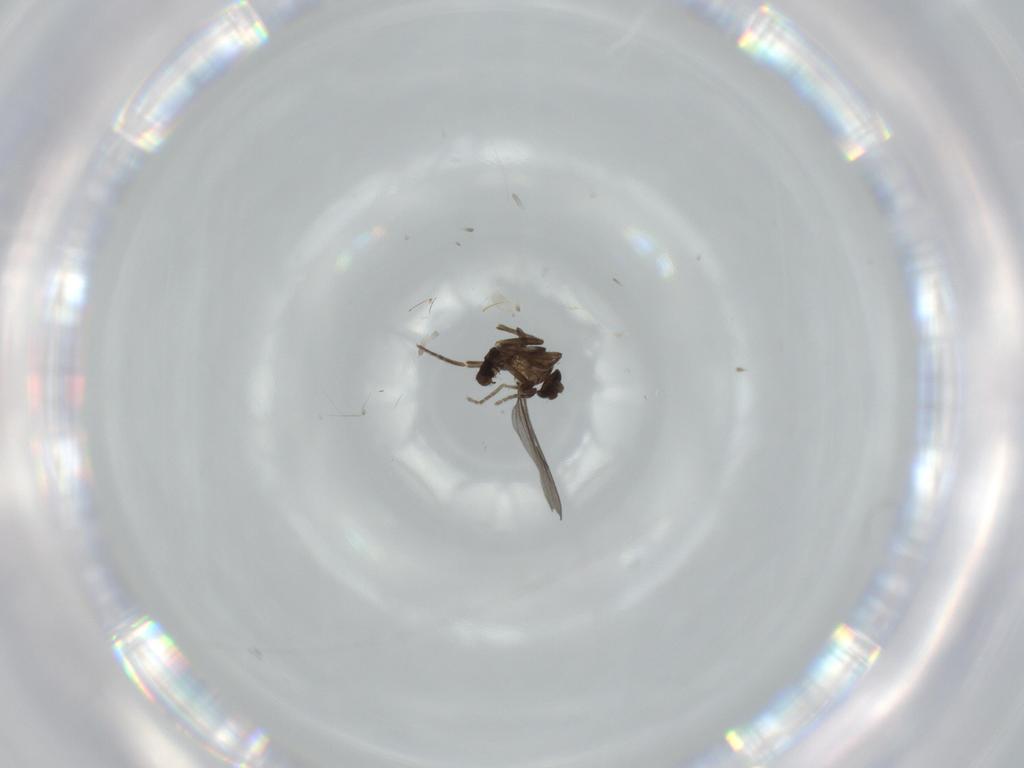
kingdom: Animalia
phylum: Arthropoda
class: Insecta
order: Diptera
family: Phoridae
